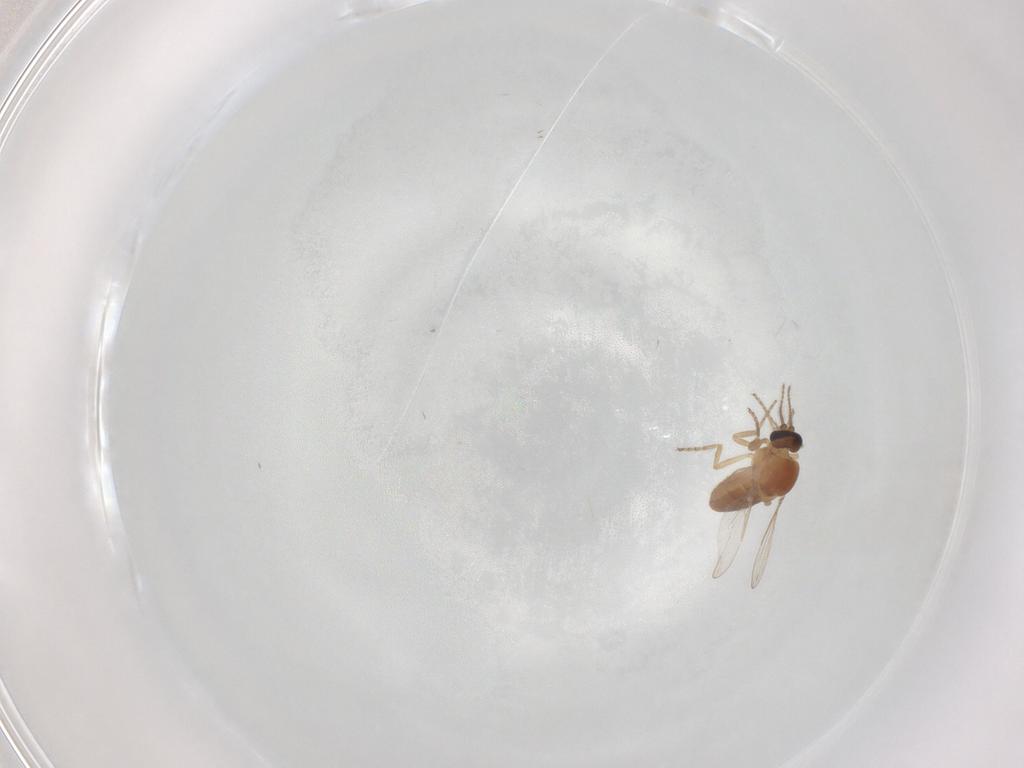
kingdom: Animalia
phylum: Arthropoda
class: Insecta
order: Diptera
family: Ceratopogonidae
